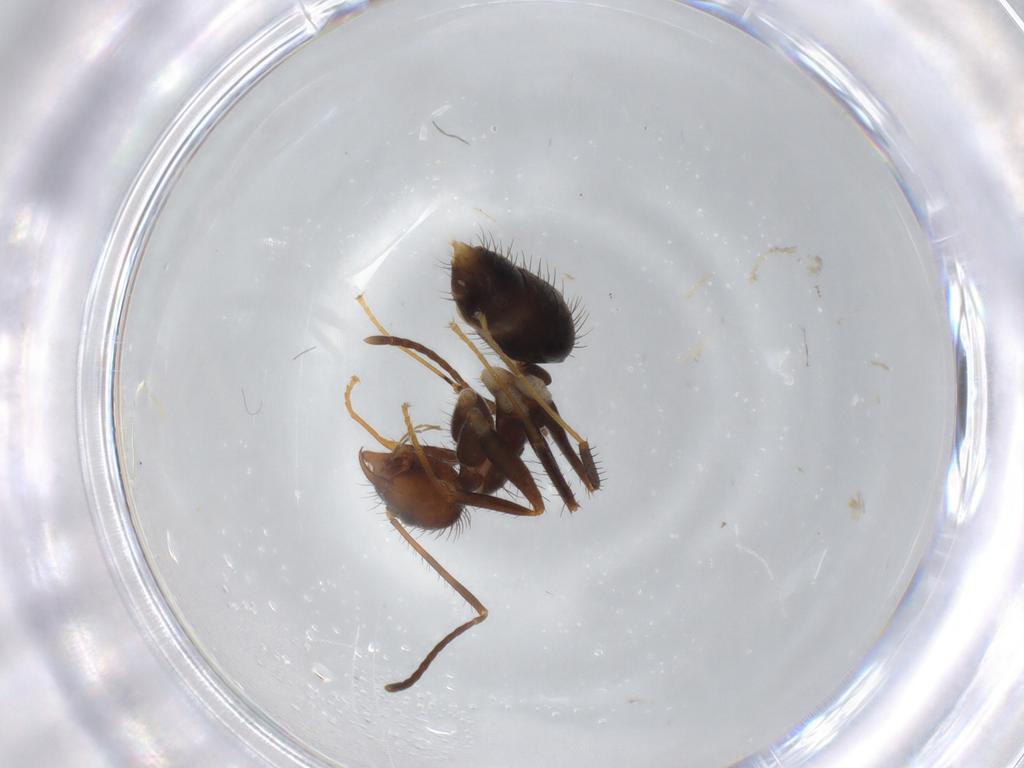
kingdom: Animalia
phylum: Arthropoda
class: Insecta
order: Hymenoptera
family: Formicidae
